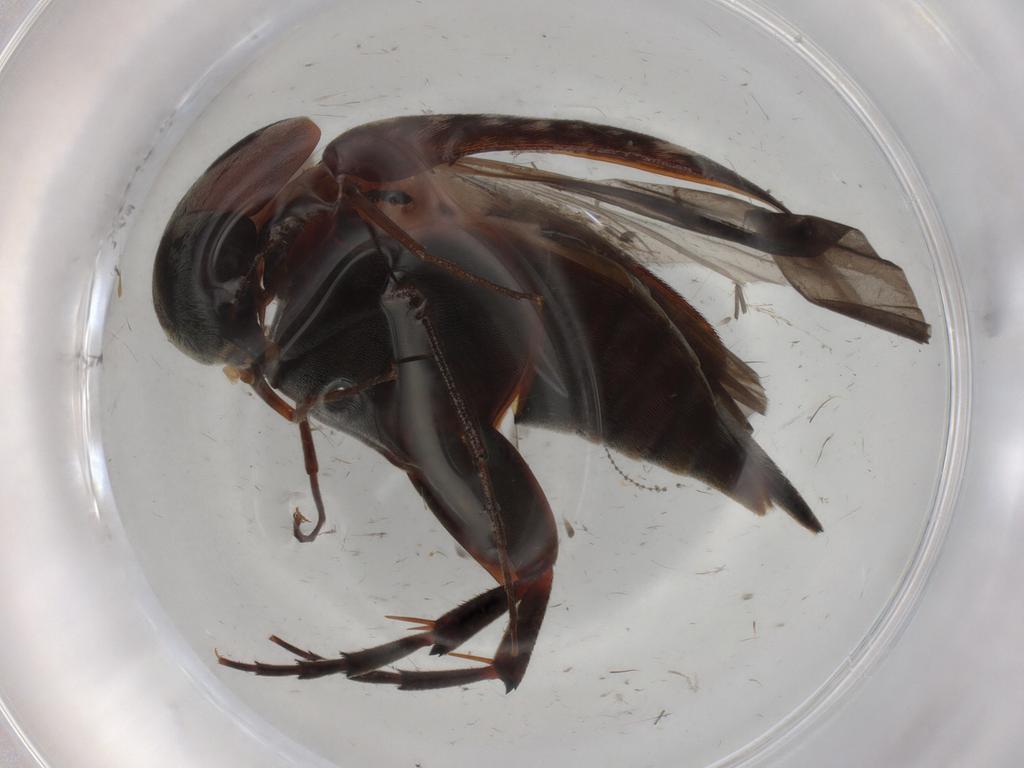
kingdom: Animalia
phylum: Arthropoda
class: Insecta
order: Coleoptera
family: Mordellidae
